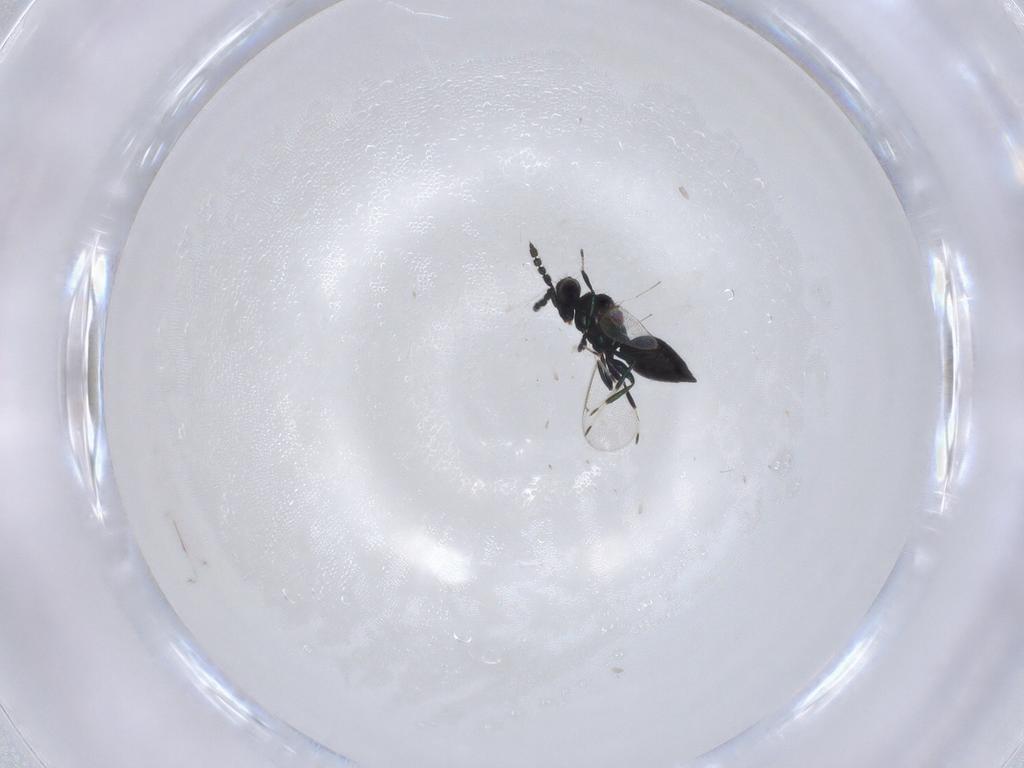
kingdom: Animalia
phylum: Arthropoda
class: Insecta
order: Hymenoptera
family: Eulophidae
